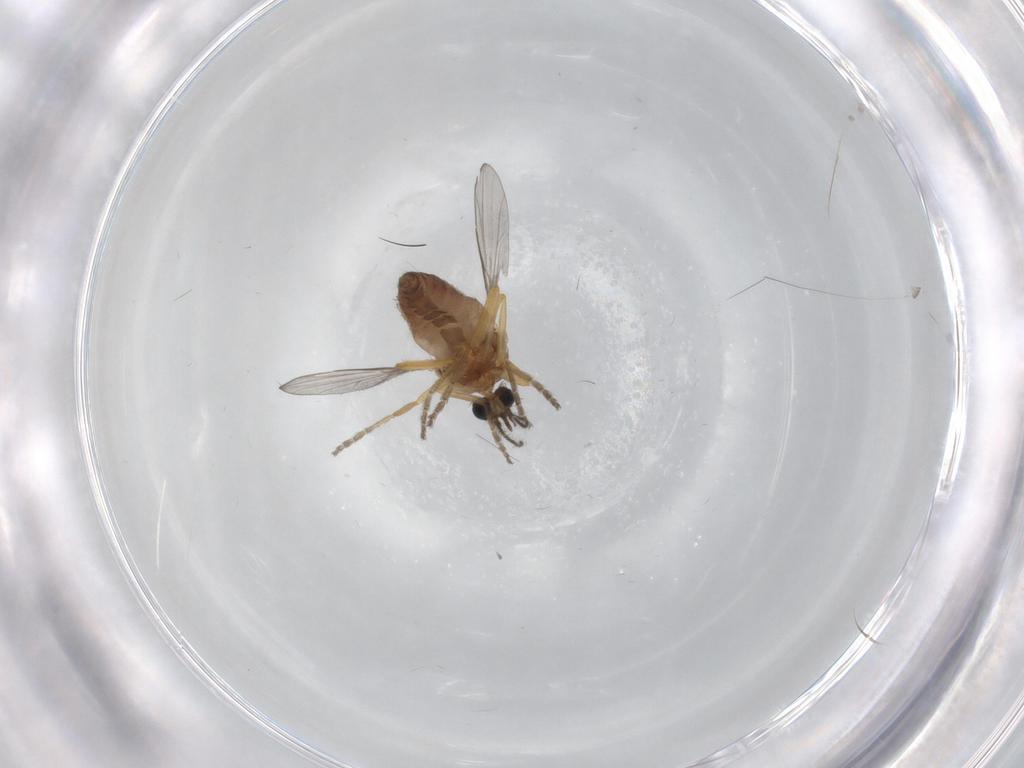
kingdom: Animalia
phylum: Arthropoda
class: Insecta
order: Diptera
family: Ceratopogonidae
